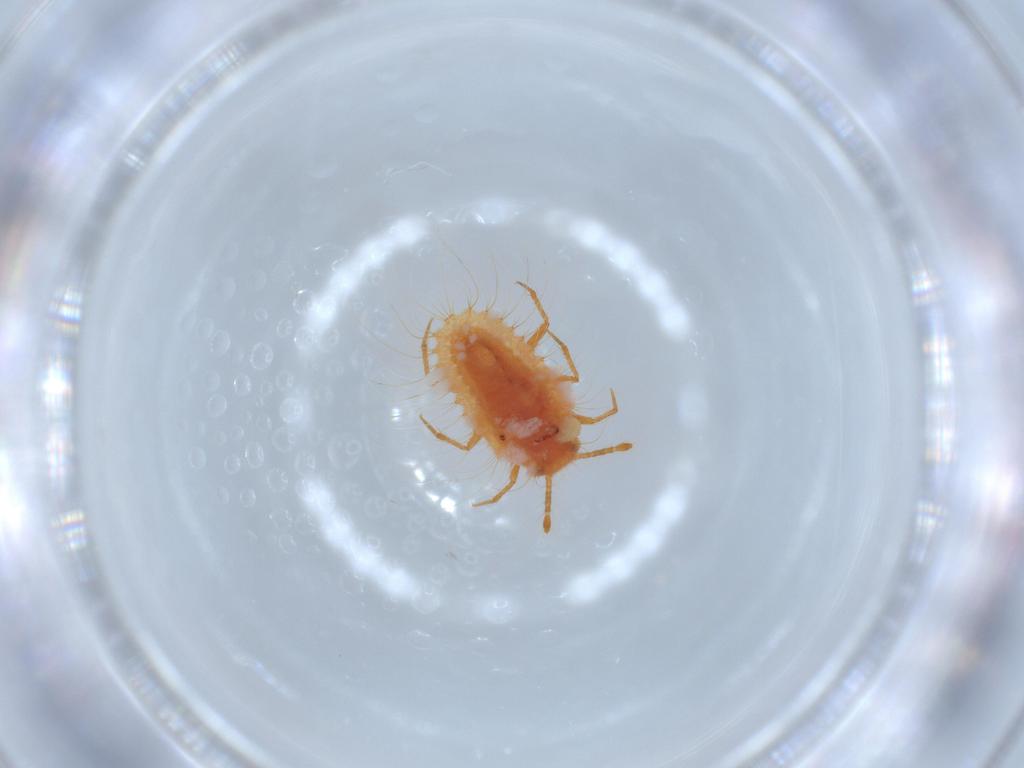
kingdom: Animalia
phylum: Arthropoda
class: Insecta
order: Hemiptera
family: Coccoidea_incertae_sedis
